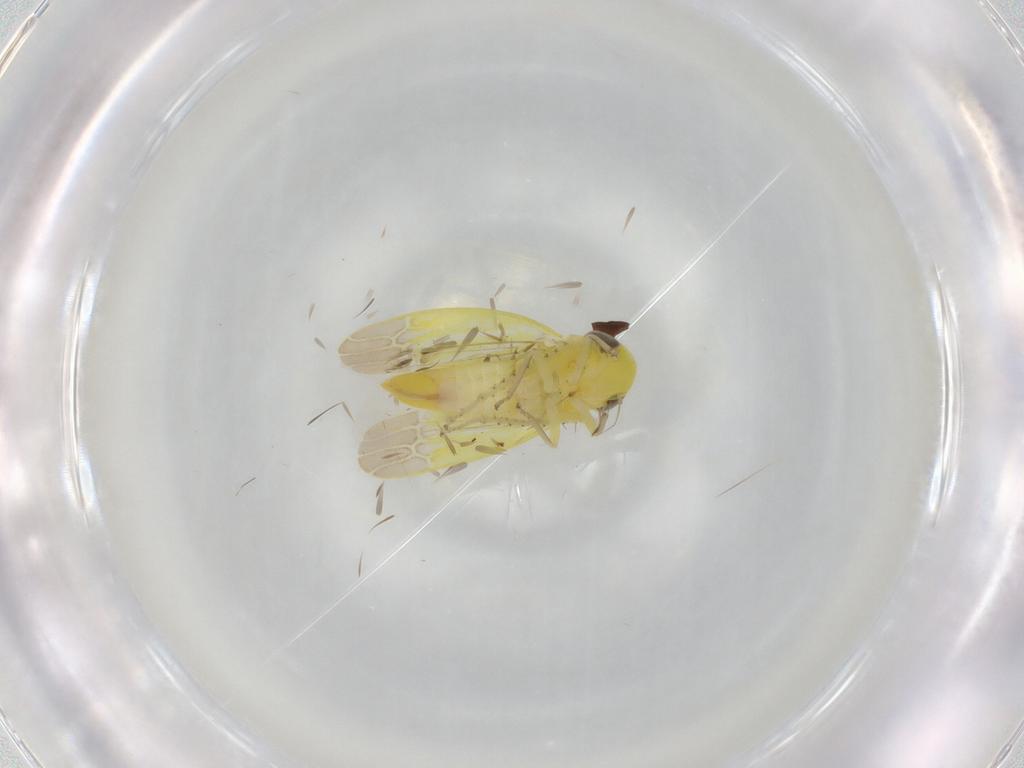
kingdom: Animalia
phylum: Arthropoda
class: Insecta
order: Hemiptera
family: Cicadellidae
